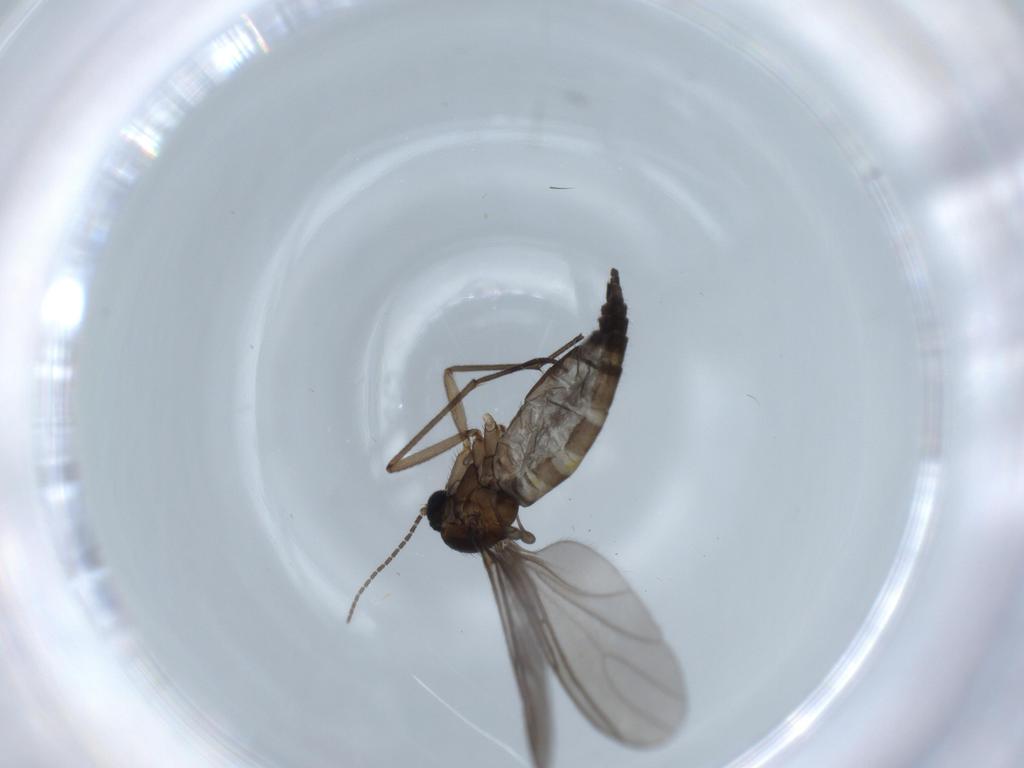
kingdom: Animalia
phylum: Arthropoda
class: Insecta
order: Diptera
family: Sciaridae
